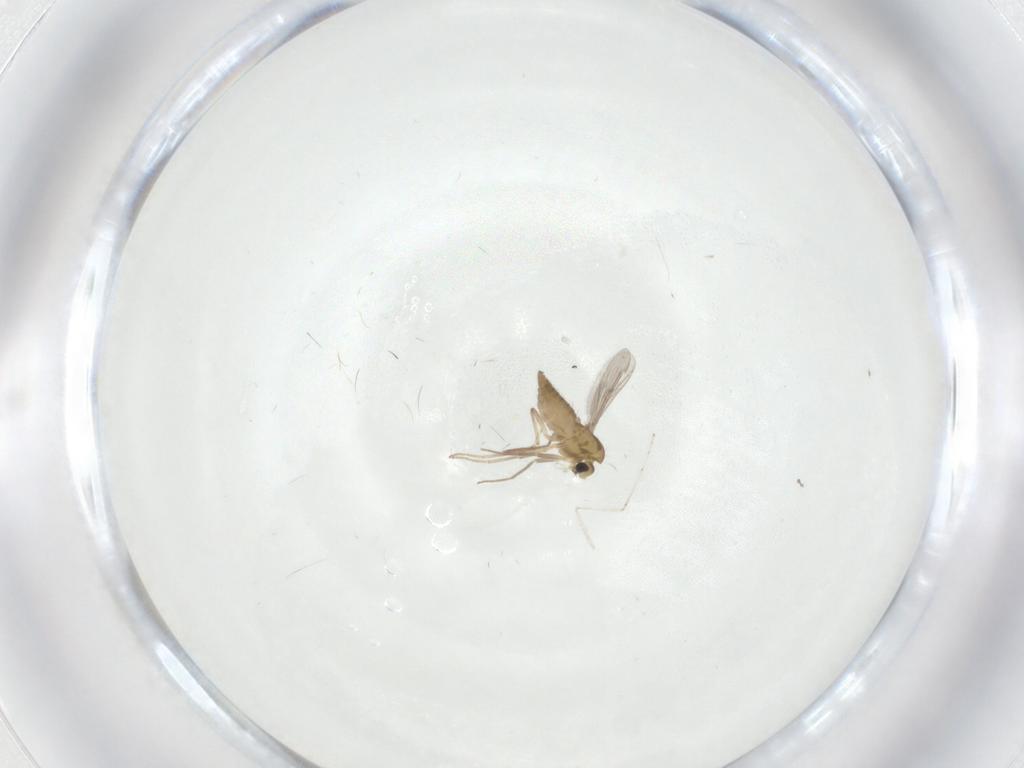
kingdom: Animalia
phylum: Arthropoda
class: Insecta
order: Diptera
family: Chironomidae
